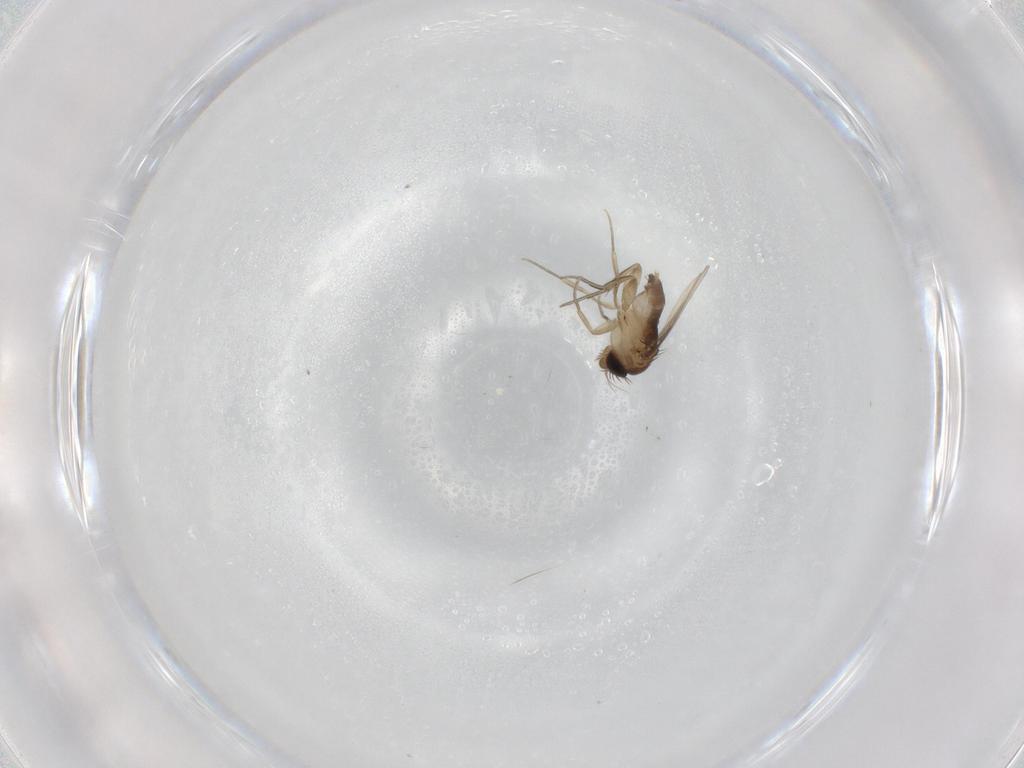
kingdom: Animalia
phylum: Arthropoda
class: Insecta
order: Diptera
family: Phoridae
